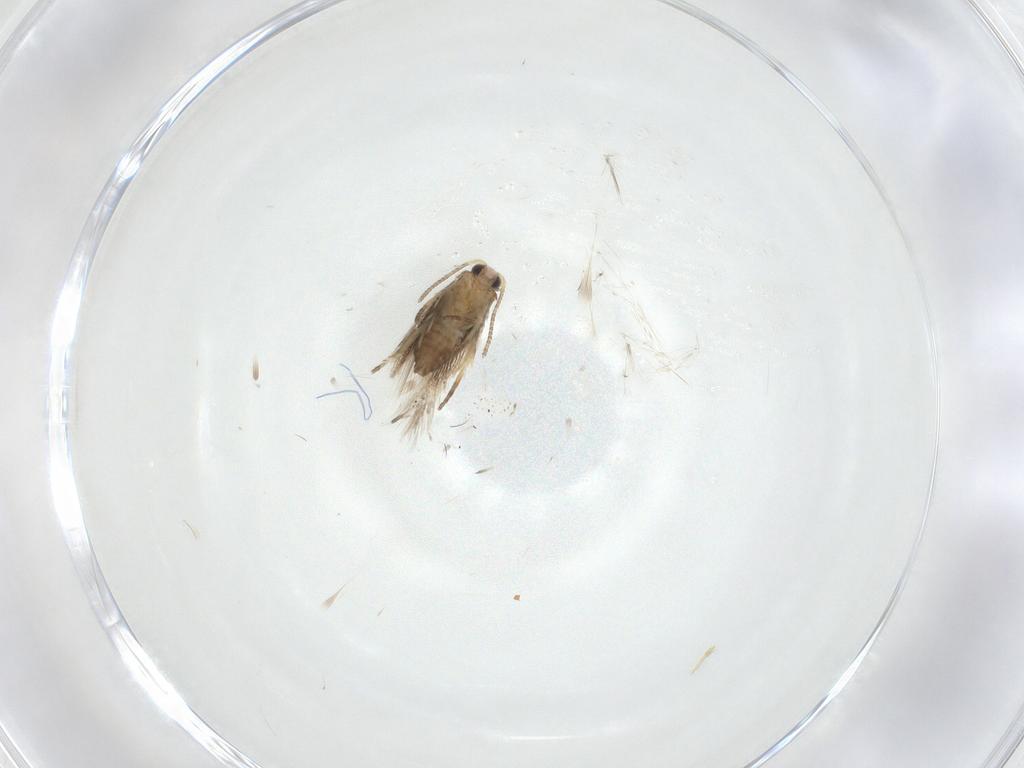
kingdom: Animalia
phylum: Arthropoda
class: Insecta
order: Lepidoptera
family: Nepticulidae
